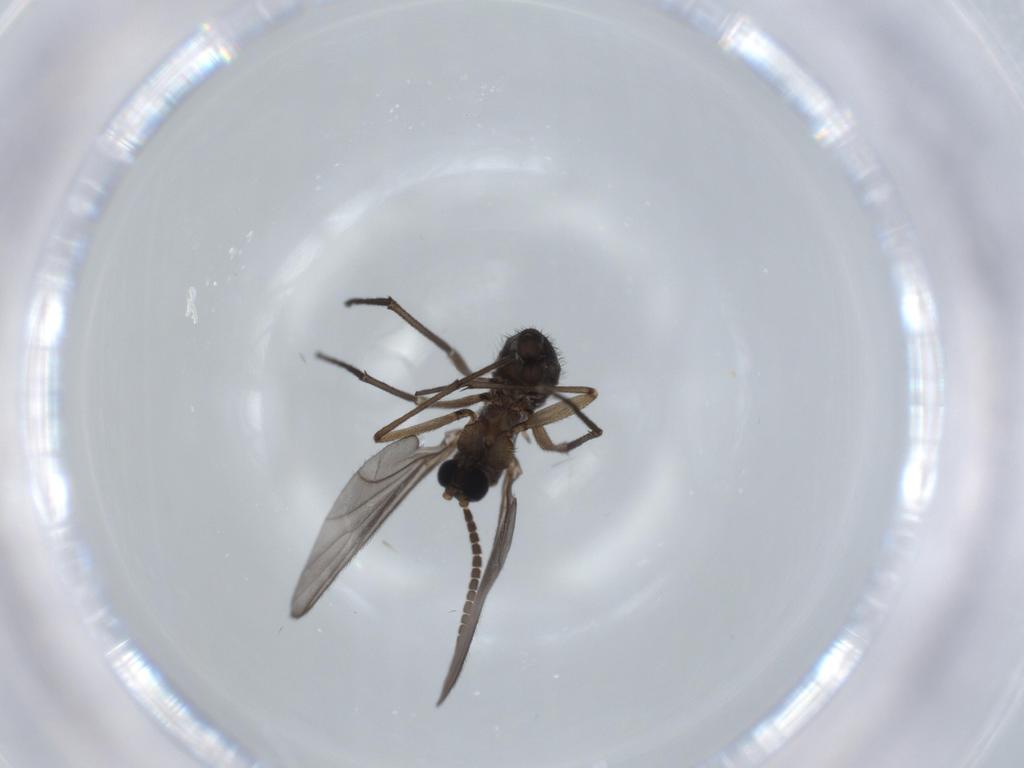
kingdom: Animalia
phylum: Arthropoda
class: Insecta
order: Diptera
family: Sciaridae
